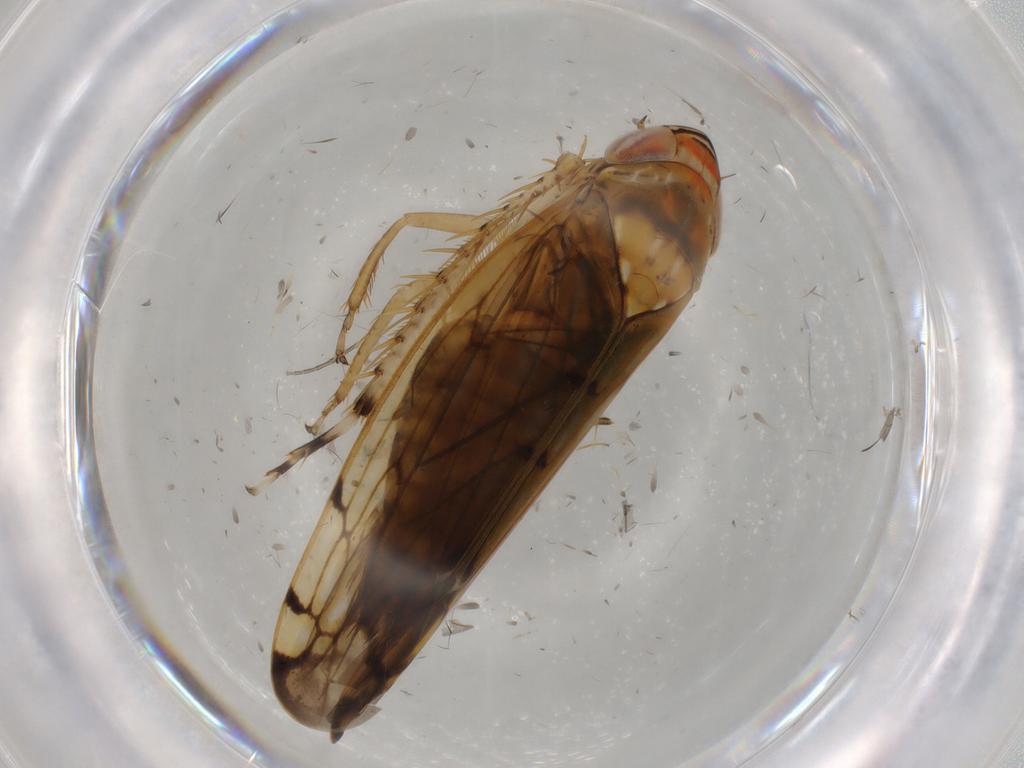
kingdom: Animalia
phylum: Arthropoda
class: Insecta
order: Hemiptera
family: Membracidae
